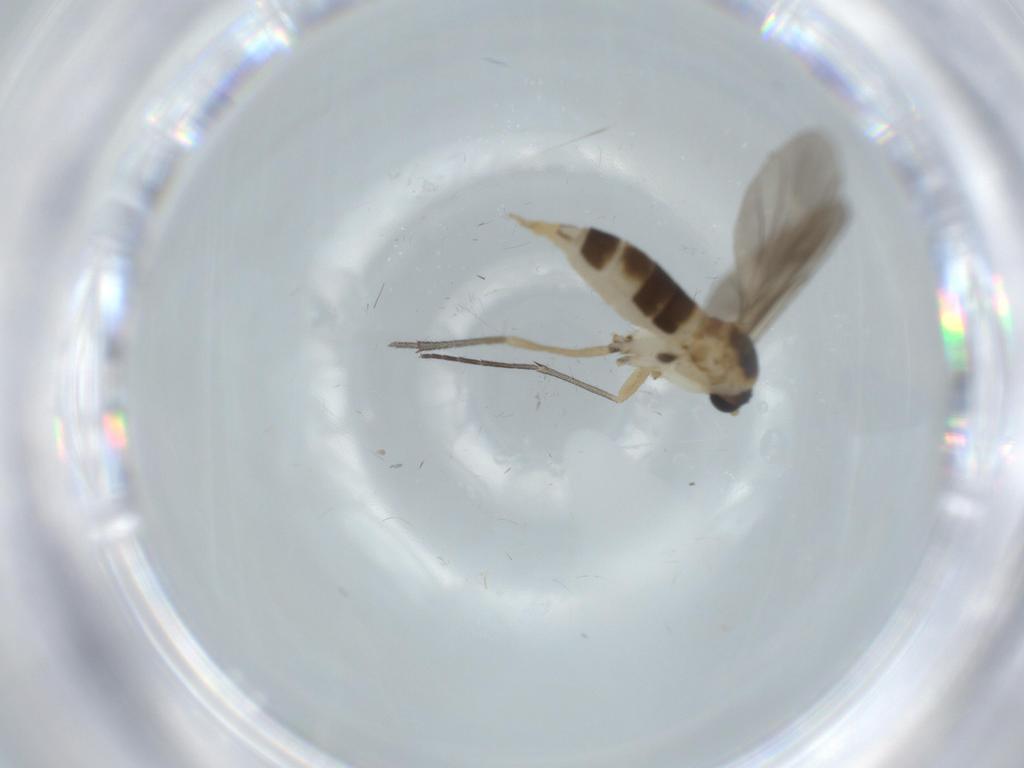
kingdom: Animalia
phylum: Arthropoda
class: Insecta
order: Diptera
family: Sciaridae
